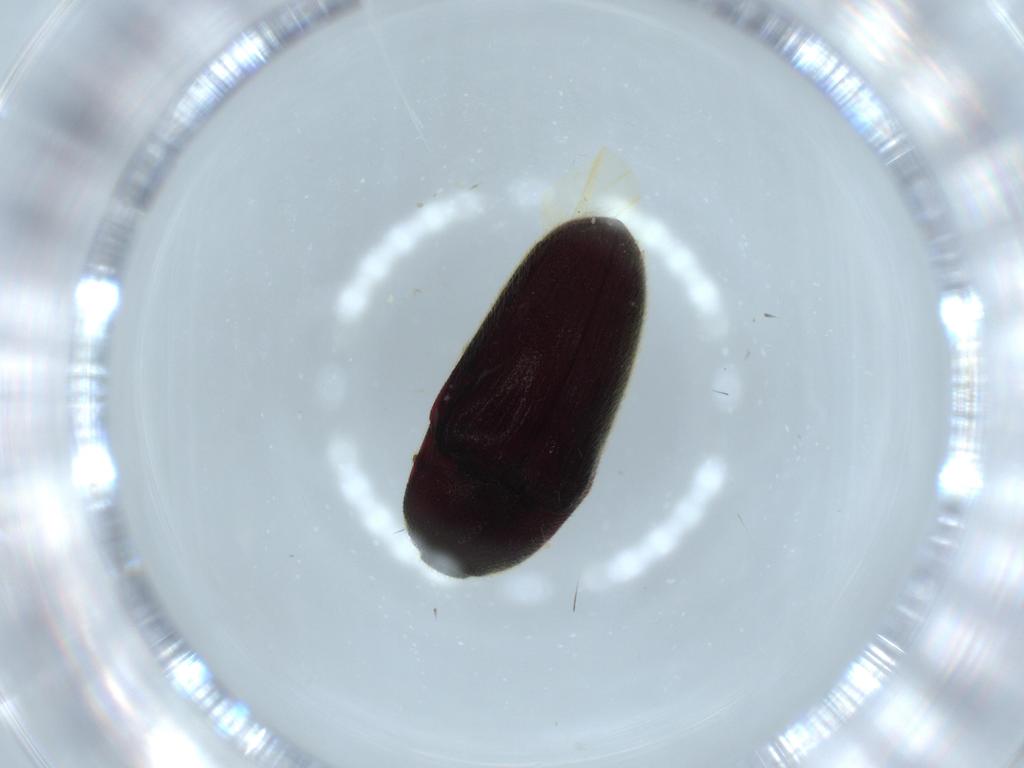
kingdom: Animalia
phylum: Arthropoda
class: Insecta
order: Coleoptera
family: Throscidae
